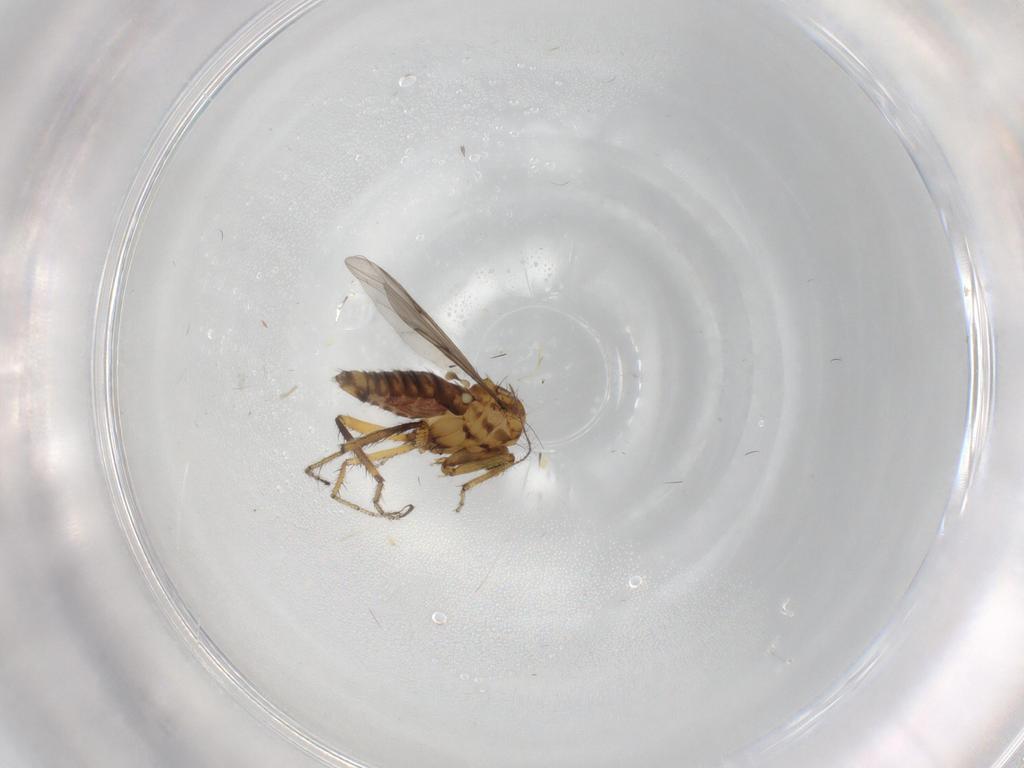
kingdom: Animalia
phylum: Arthropoda
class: Insecta
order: Diptera
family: Ceratopogonidae
